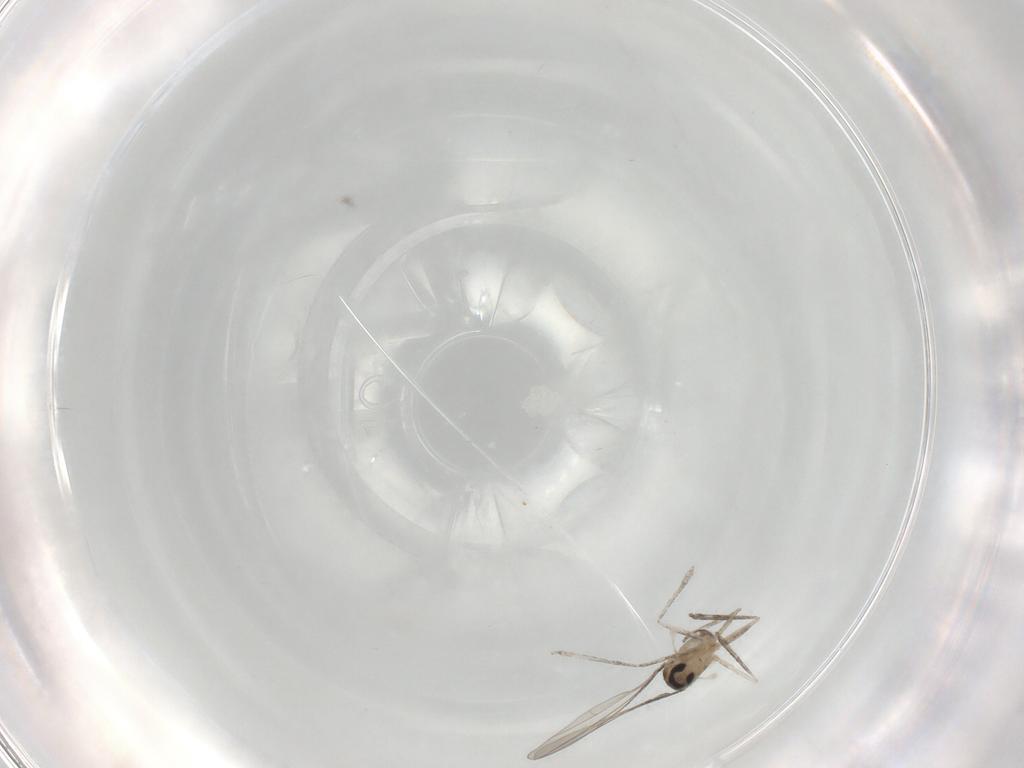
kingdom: Animalia
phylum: Arthropoda
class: Insecta
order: Diptera
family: Cecidomyiidae
